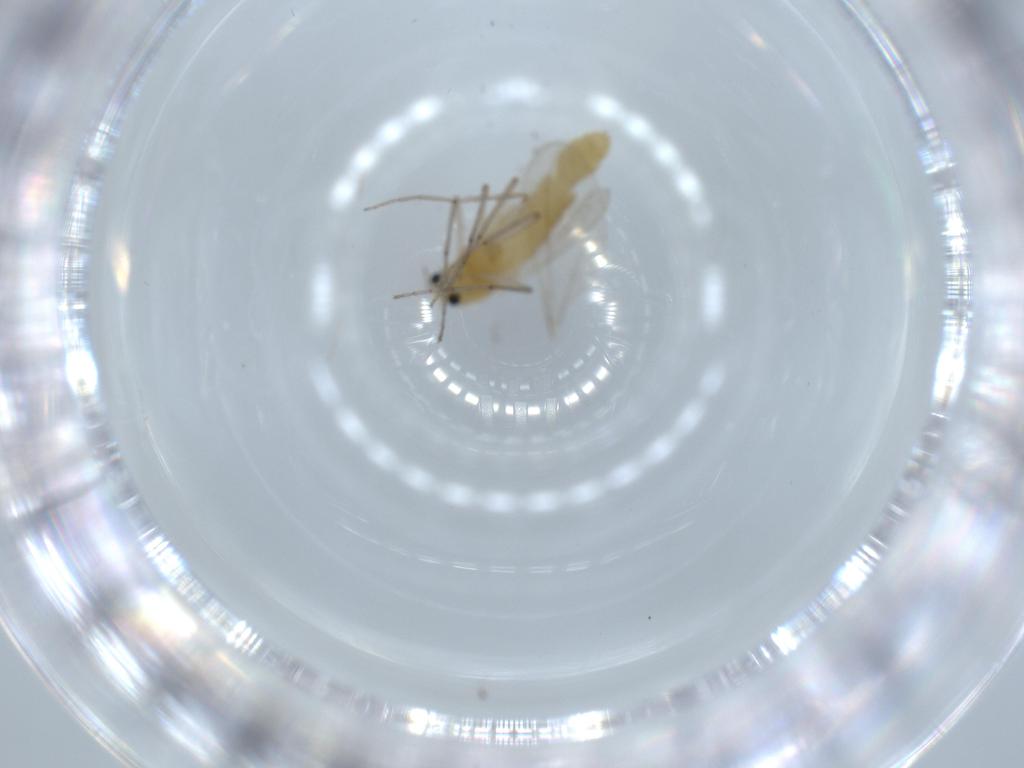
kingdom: Animalia
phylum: Arthropoda
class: Insecta
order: Diptera
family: Chironomidae
